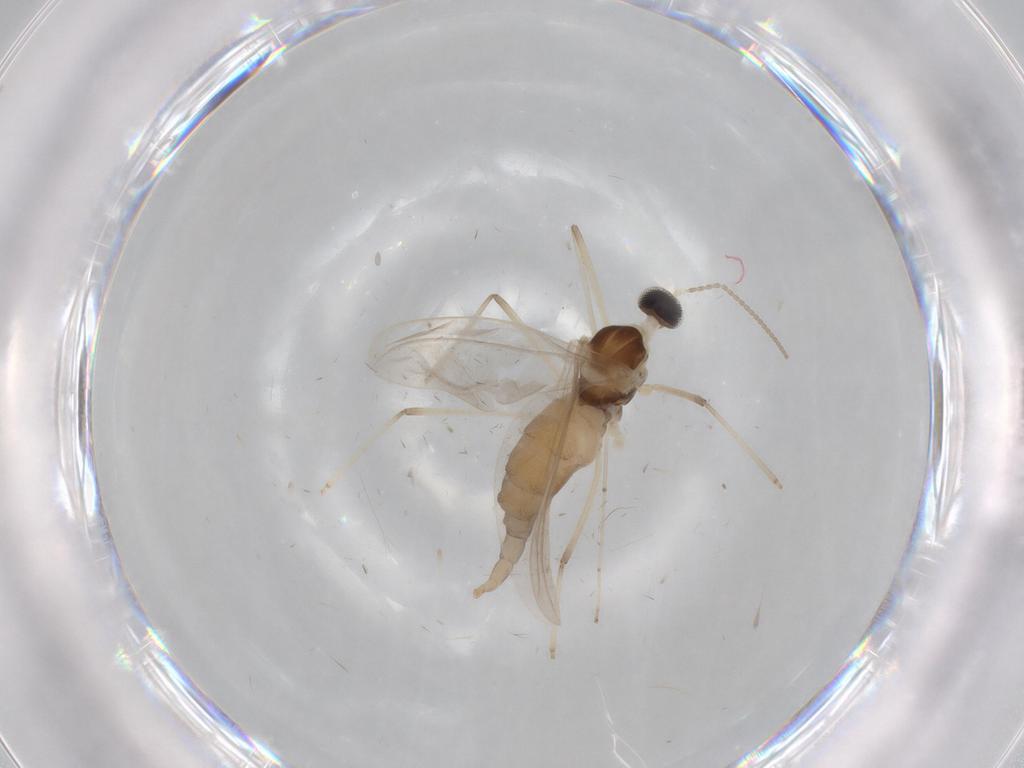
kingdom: Animalia
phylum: Arthropoda
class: Insecta
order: Diptera
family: Cecidomyiidae
